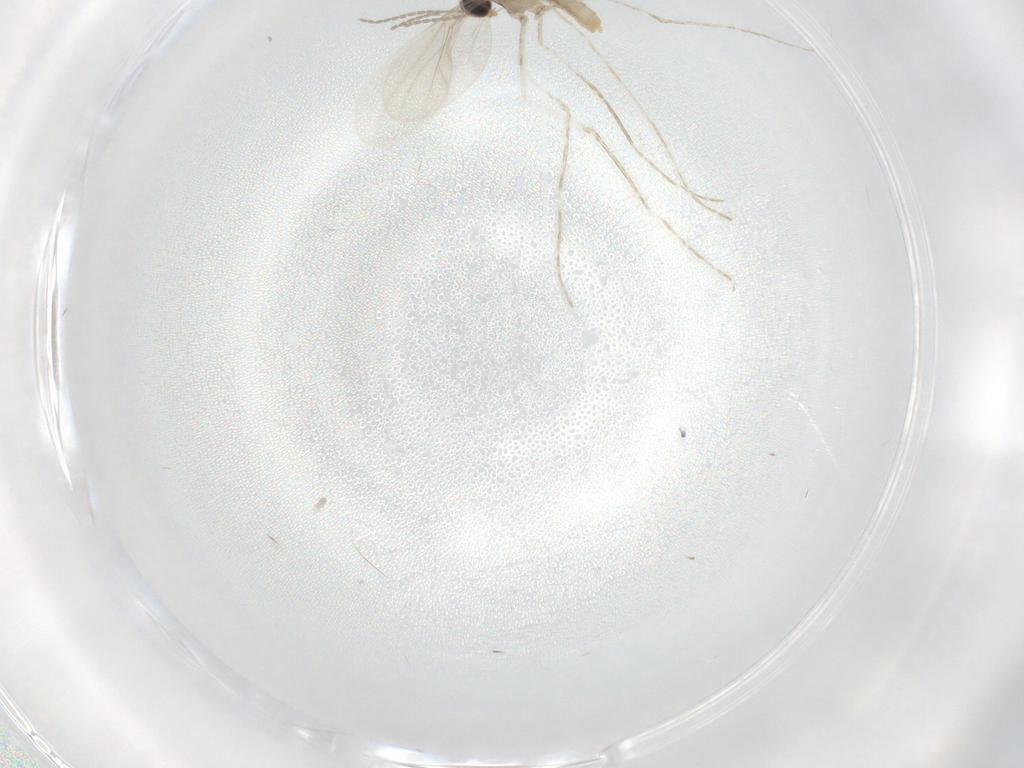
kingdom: Animalia
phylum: Arthropoda
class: Insecta
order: Diptera
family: Cecidomyiidae
